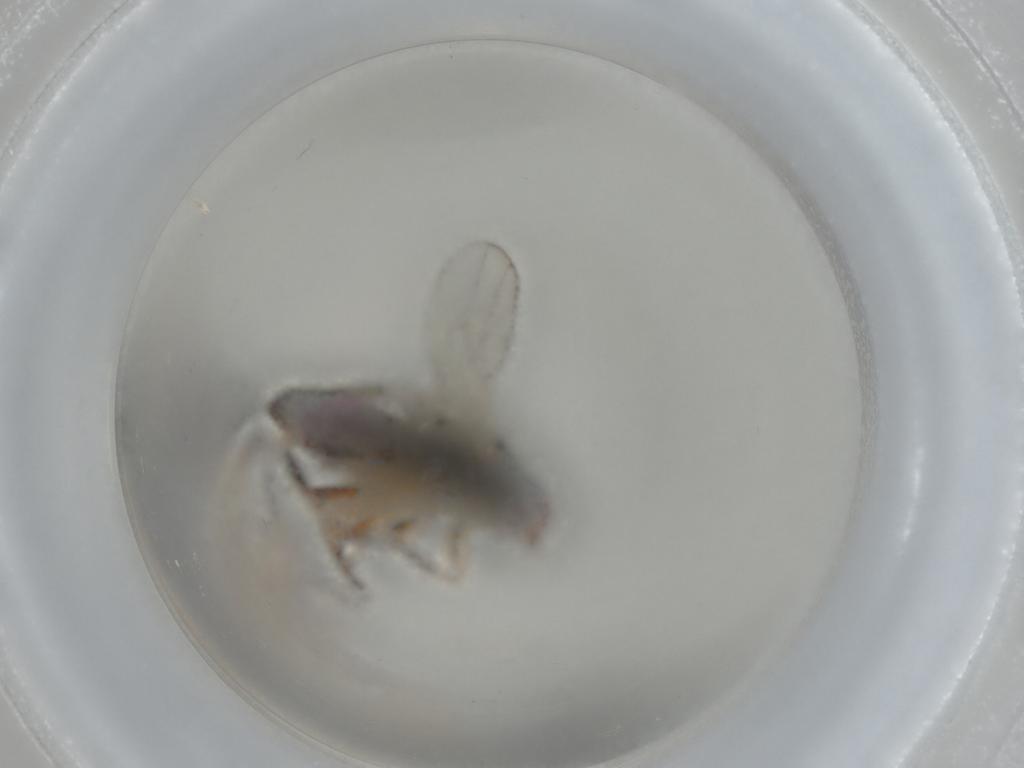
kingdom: Animalia
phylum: Arthropoda
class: Insecta
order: Diptera
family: Chloropidae
